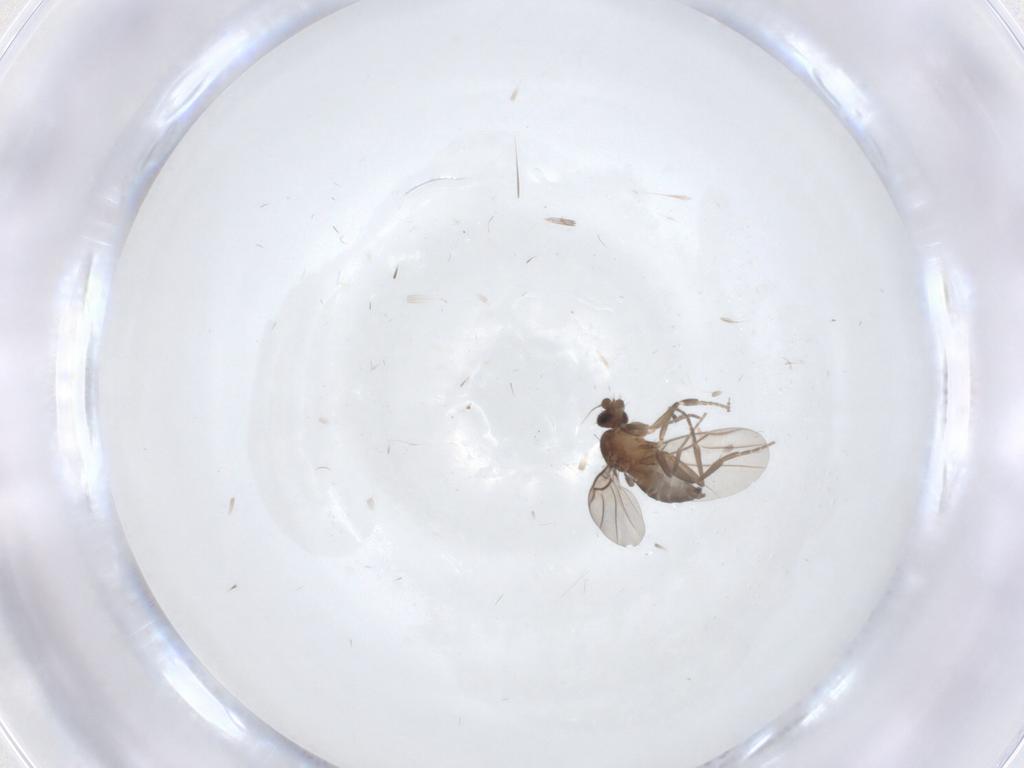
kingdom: Animalia
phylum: Arthropoda
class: Insecta
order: Diptera
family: Phoridae
